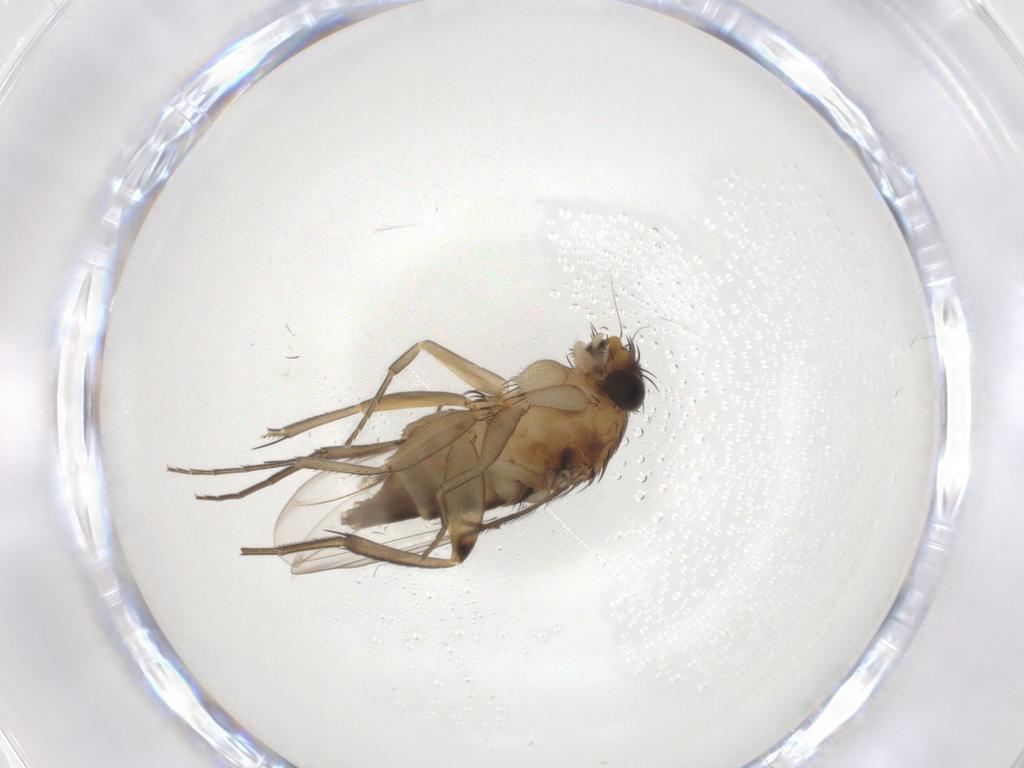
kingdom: Animalia
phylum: Arthropoda
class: Insecta
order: Diptera
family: Phoridae
